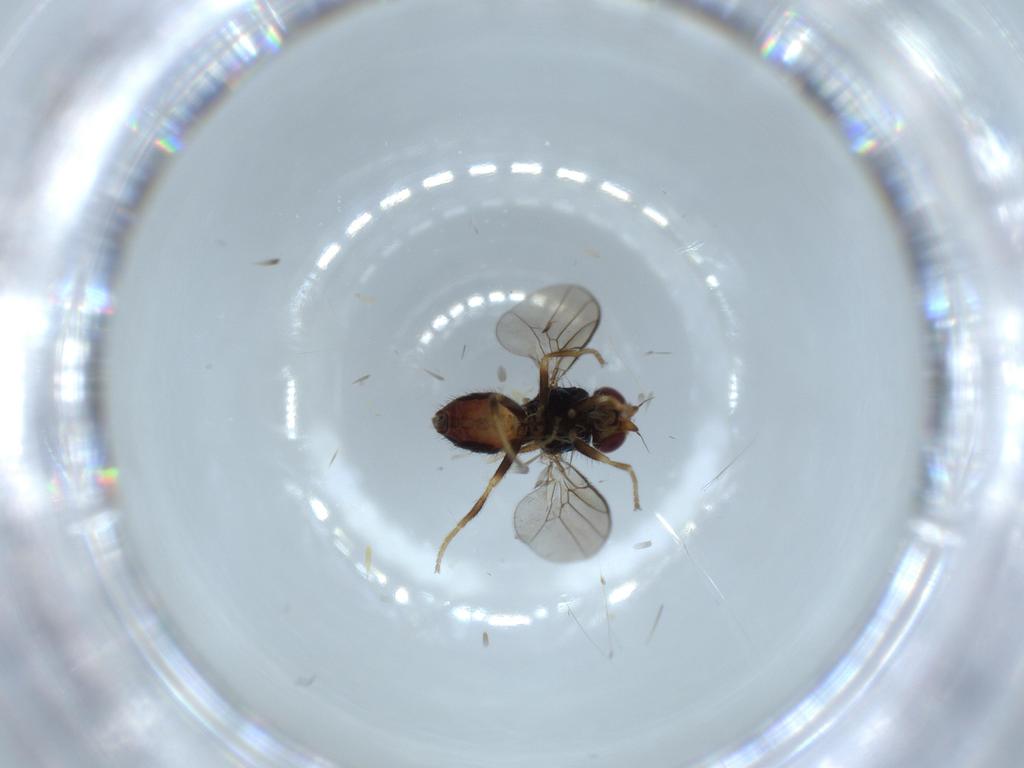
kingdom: Animalia
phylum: Arthropoda
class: Insecta
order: Diptera
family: Chloropidae
